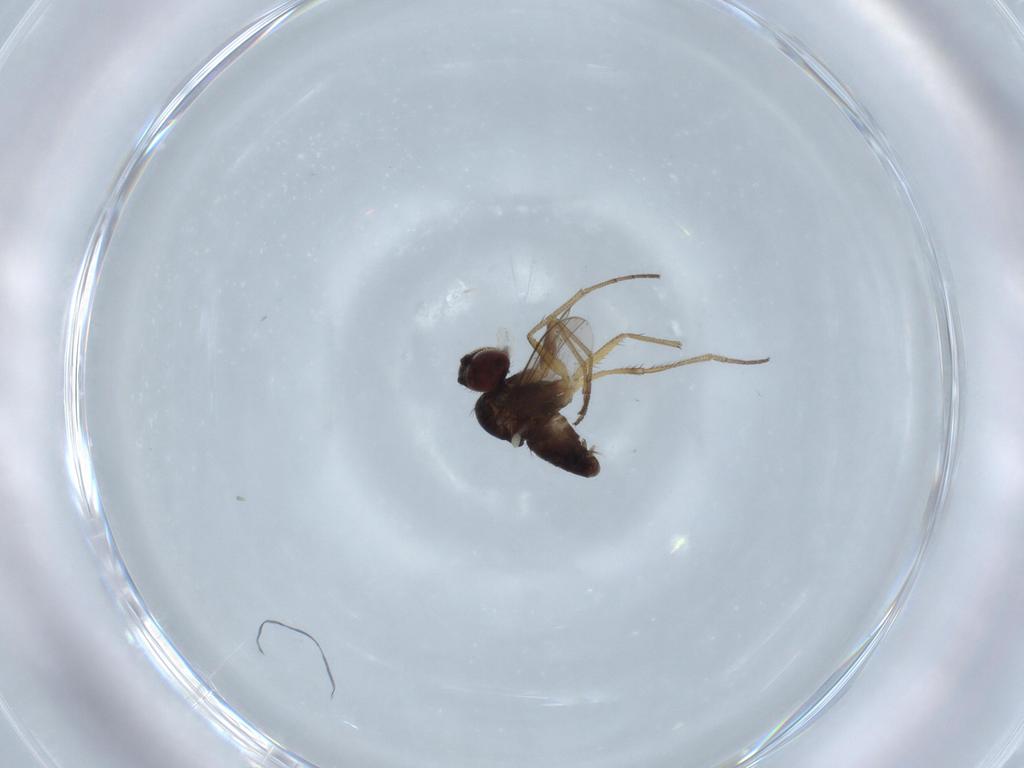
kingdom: Animalia
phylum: Arthropoda
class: Insecta
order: Diptera
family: Dolichopodidae
